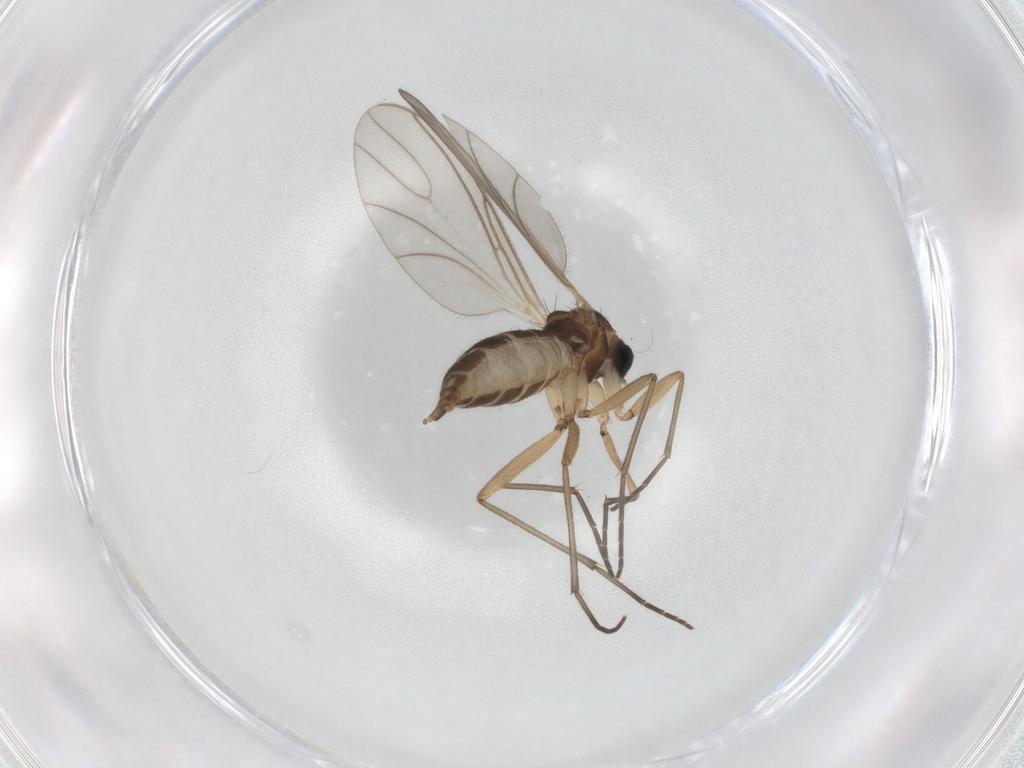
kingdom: Animalia
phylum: Arthropoda
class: Insecta
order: Diptera
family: Sciaridae
